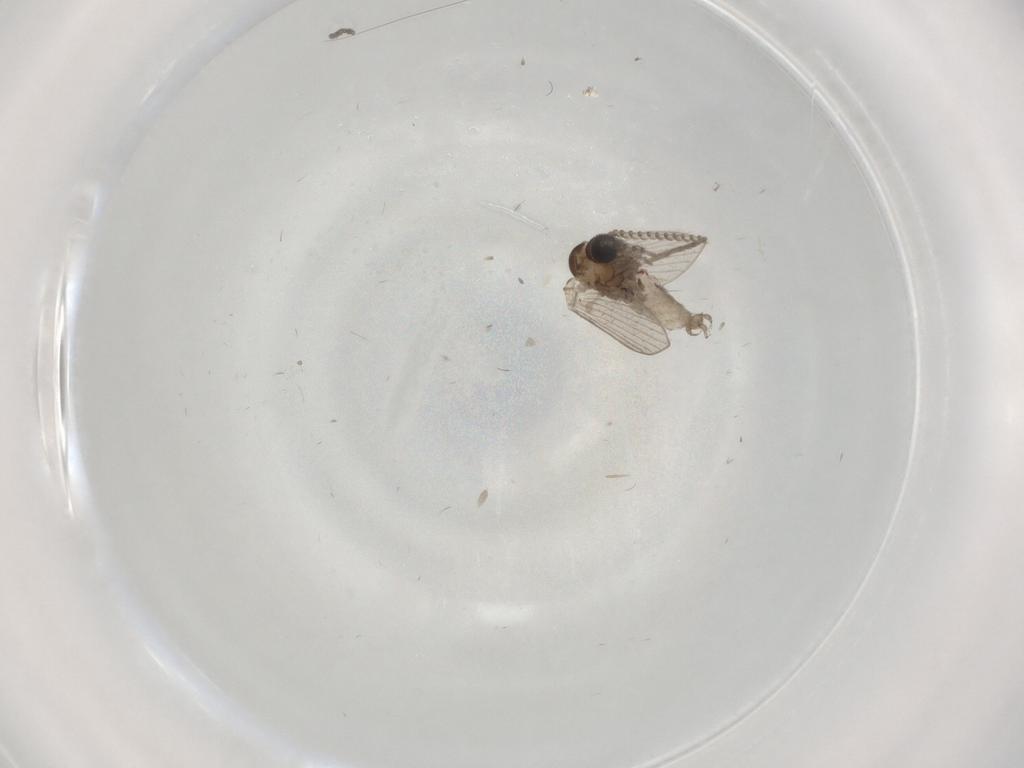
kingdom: Animalia
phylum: Arthropoda
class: Insecta
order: Diptera
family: Psychodidae
